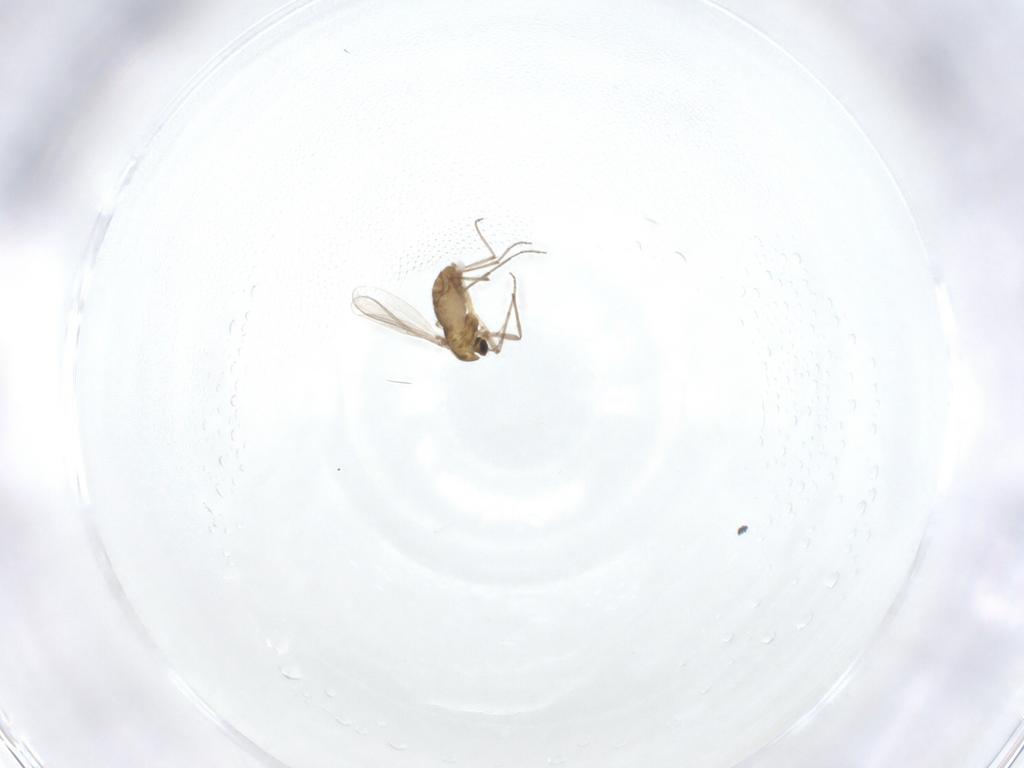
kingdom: Animalia
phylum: Arthropoda
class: Insecta
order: Diptera
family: Phoridae
